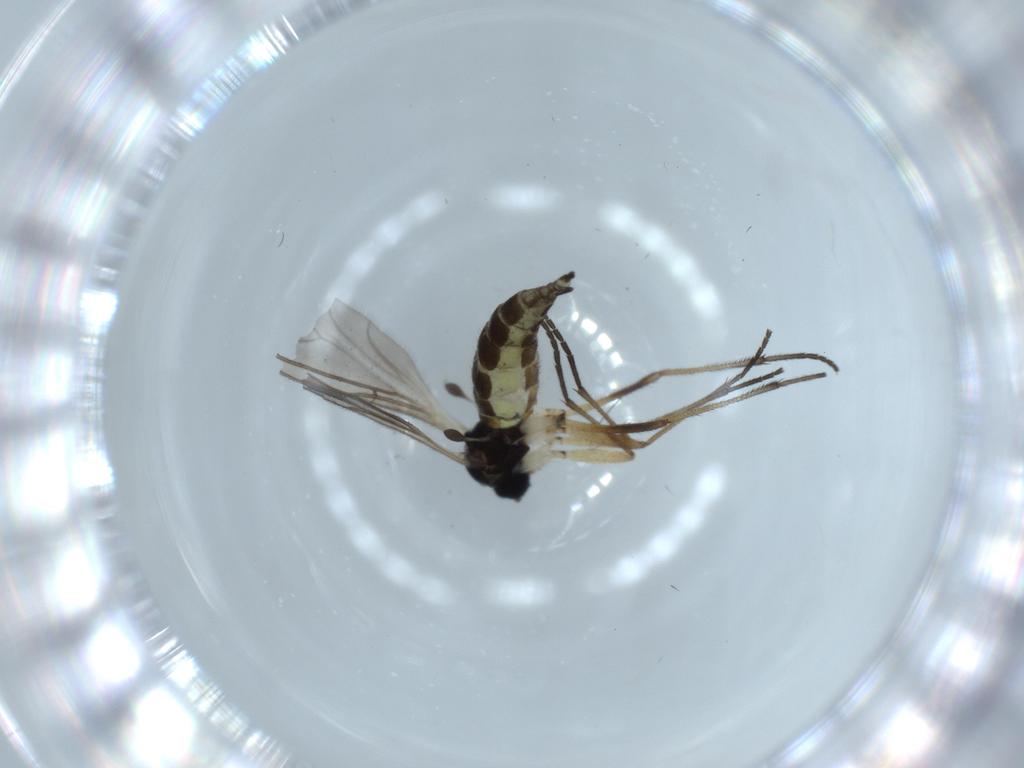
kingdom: Animalia
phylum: Arthropoda
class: Insecta
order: Diptera
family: Sciaridae
